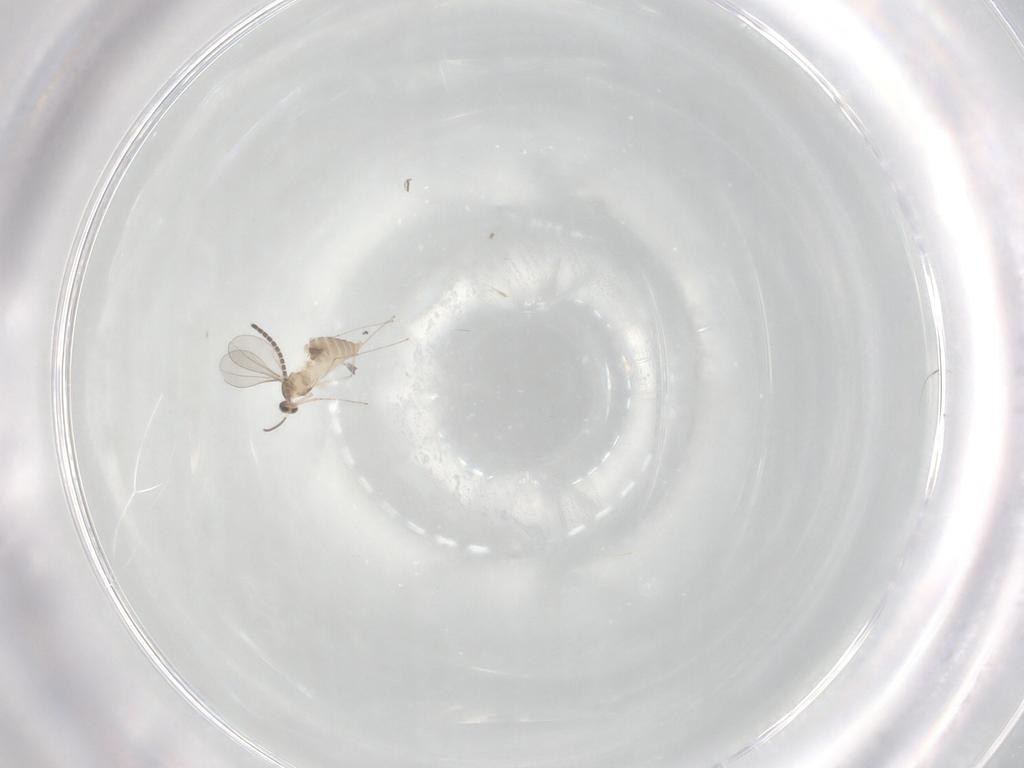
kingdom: Animalia
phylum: Arthropoda
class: Insecta
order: Diptera
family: Cecidomyiidae
